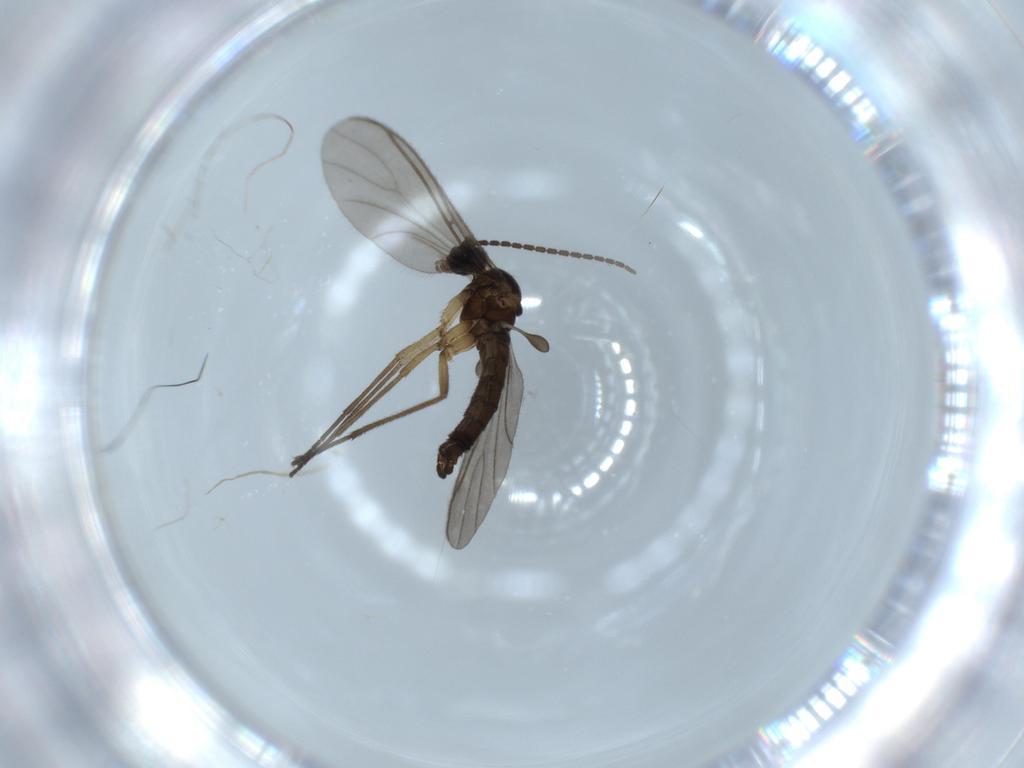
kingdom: Animalia
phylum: Arthropoda
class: Insecta
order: Diptera
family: Sciaridae
